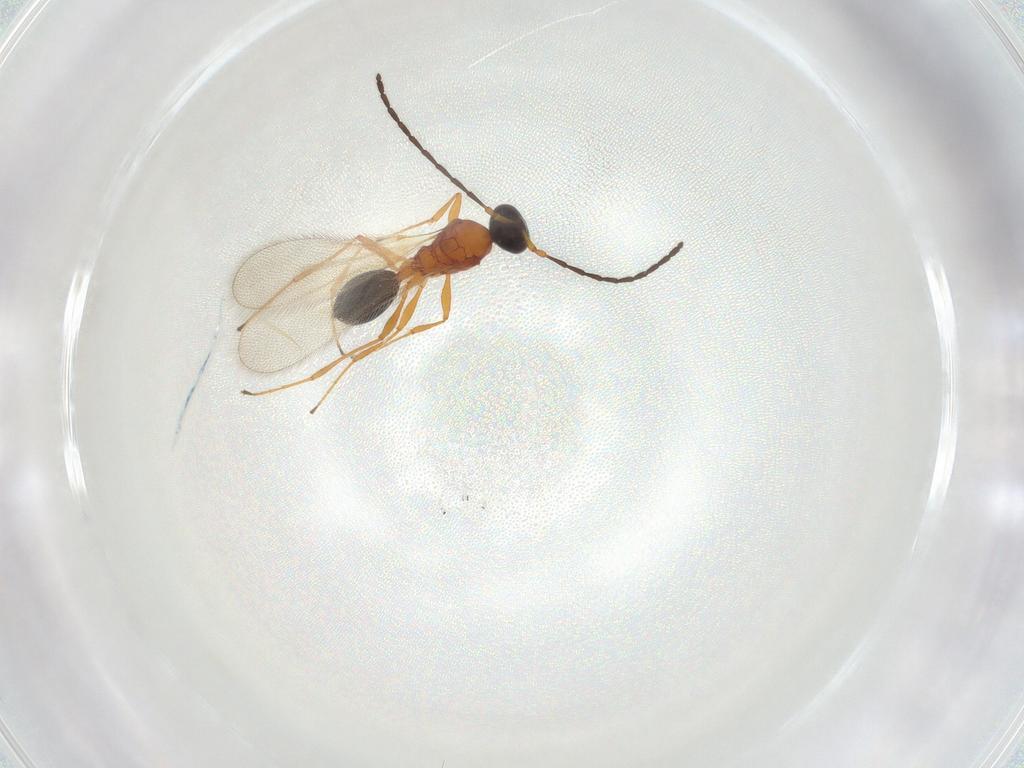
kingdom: Animalia
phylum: Arthropoda
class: Insecta
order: Hymenoptera
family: Diapriidae
